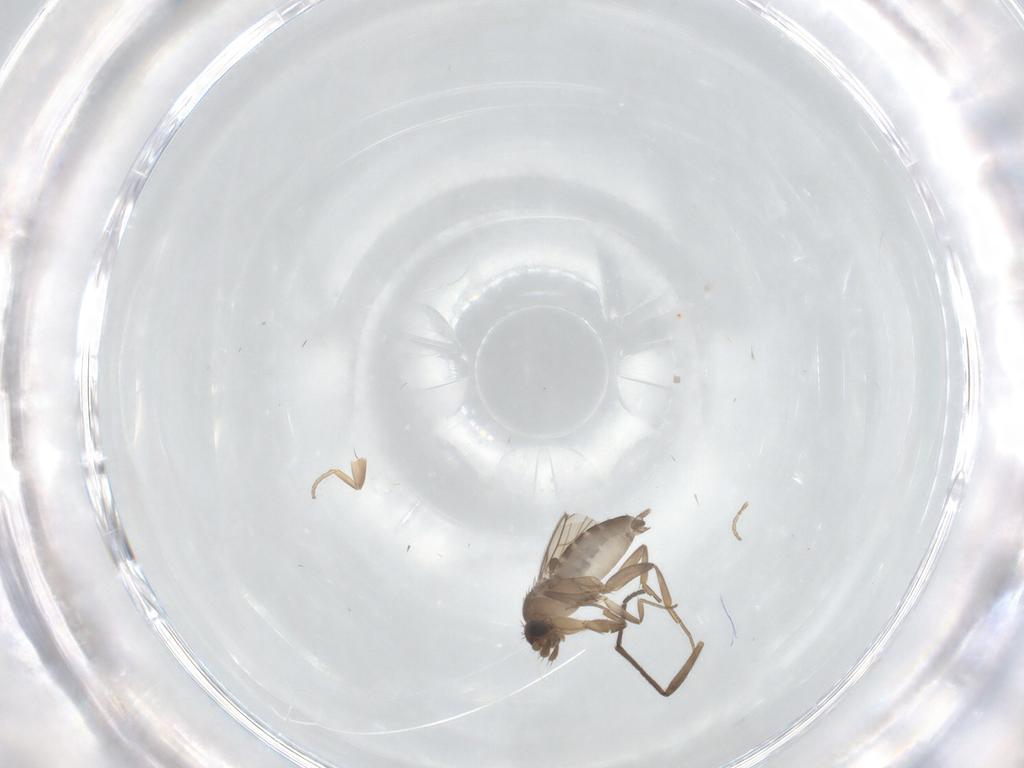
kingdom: Animalia
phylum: Arthropoda
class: Insecta
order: Diptera
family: Phoridae
